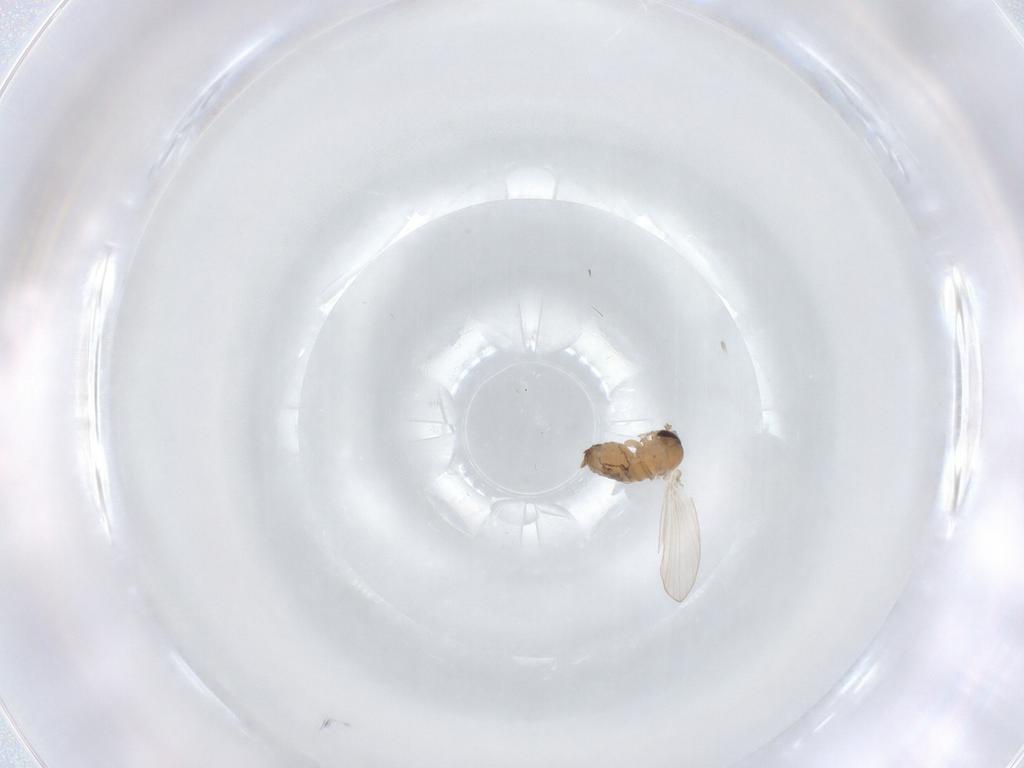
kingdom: Animalia
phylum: Arthropoda
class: Insecta
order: Diptera
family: Psychodidae
